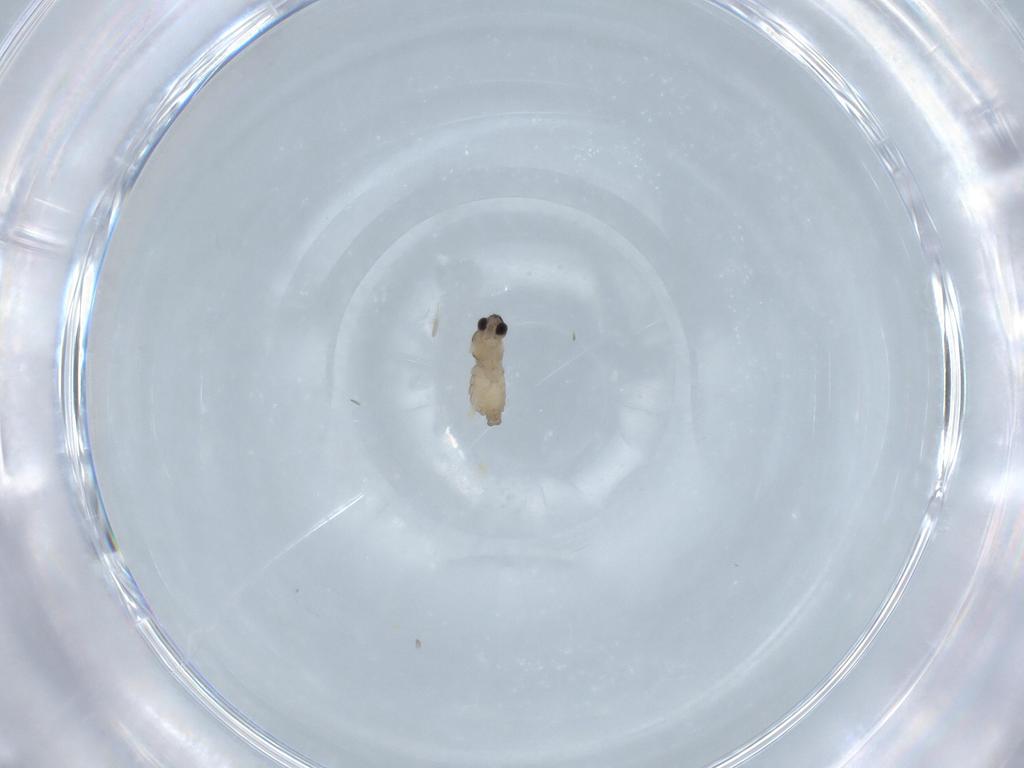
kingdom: Animalia
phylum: Arthropoda
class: Insecta
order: Diptera
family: Cecidomyiidae
